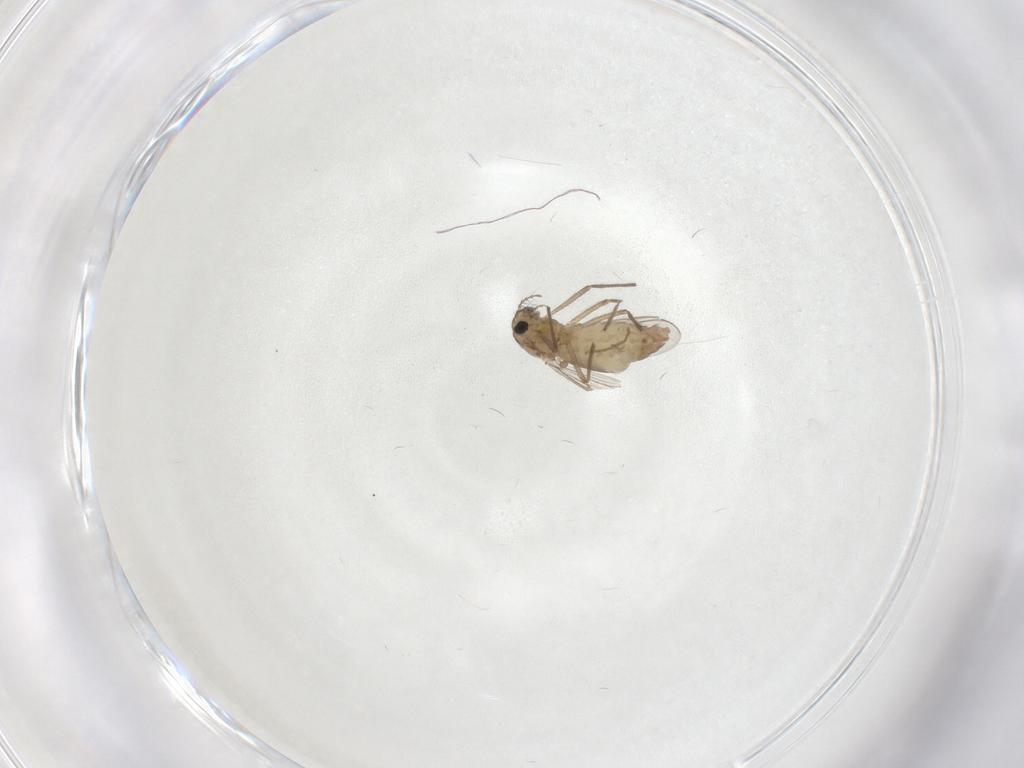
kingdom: Animalia
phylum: Arthropoda
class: Insecta
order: Diptera
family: Chironomidae
